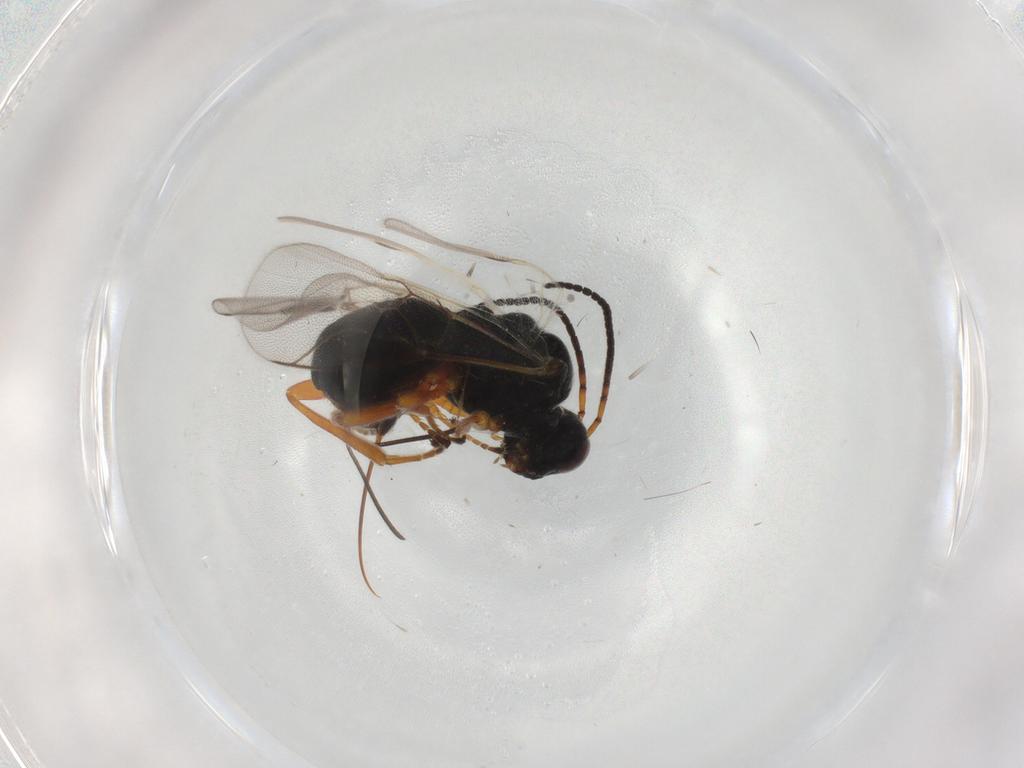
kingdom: Animalia
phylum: Arthropoda
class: Insecta
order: Hymenoptera
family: Braconidae
